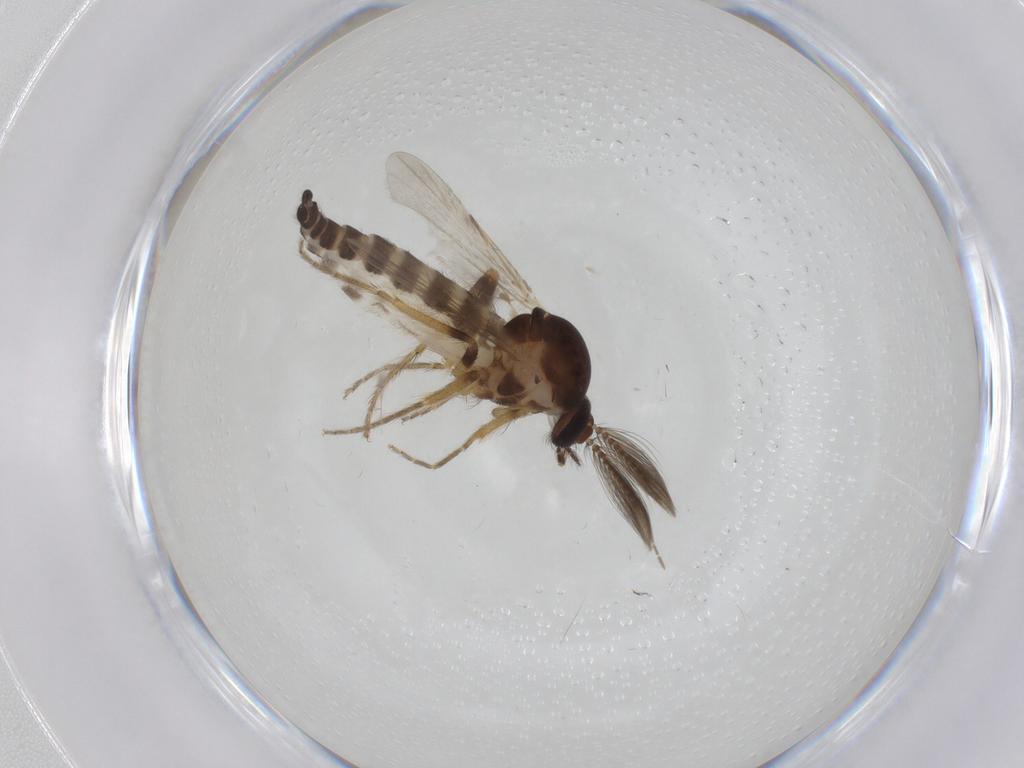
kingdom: Animalia
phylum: Arthropoda
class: Insecta
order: Diptera
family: Ceratopogonidae
